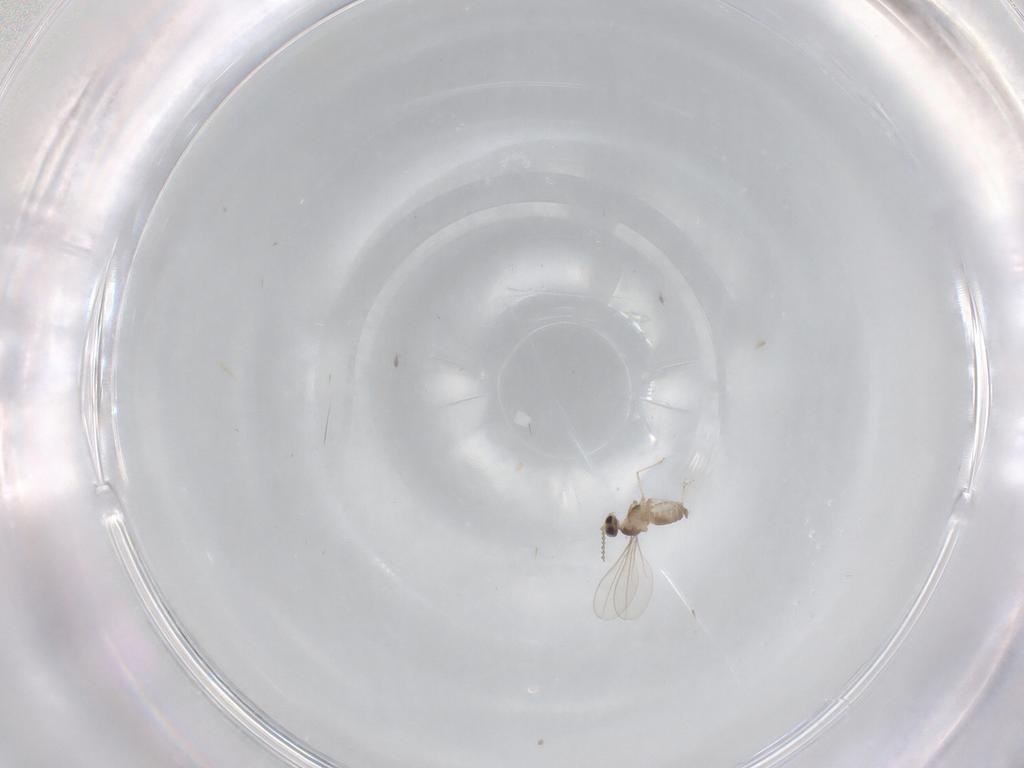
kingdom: Animalia
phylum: Arthropoda
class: Insecta
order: Diptera
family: Cecidomyiidae
